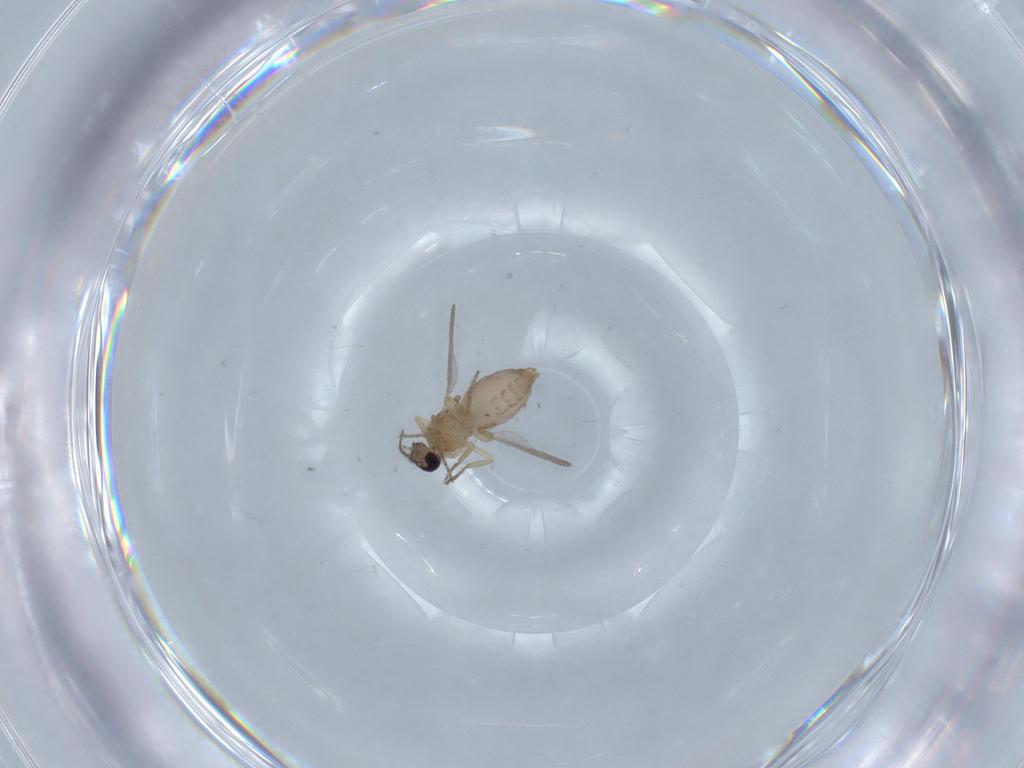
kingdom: Animalia
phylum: Arthropoda
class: Insecta
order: Diptera
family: Ceratopogonidae
